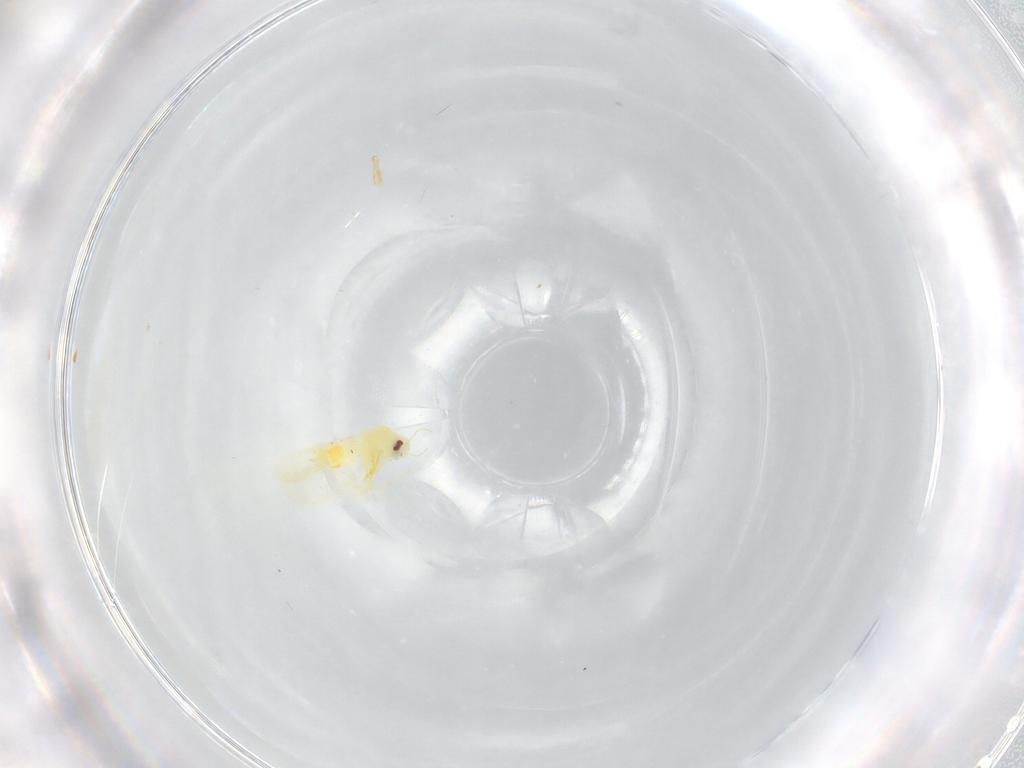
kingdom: Animalia
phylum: Arthropoda
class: Insecta
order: Hemiptera
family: Aleyrodidae
